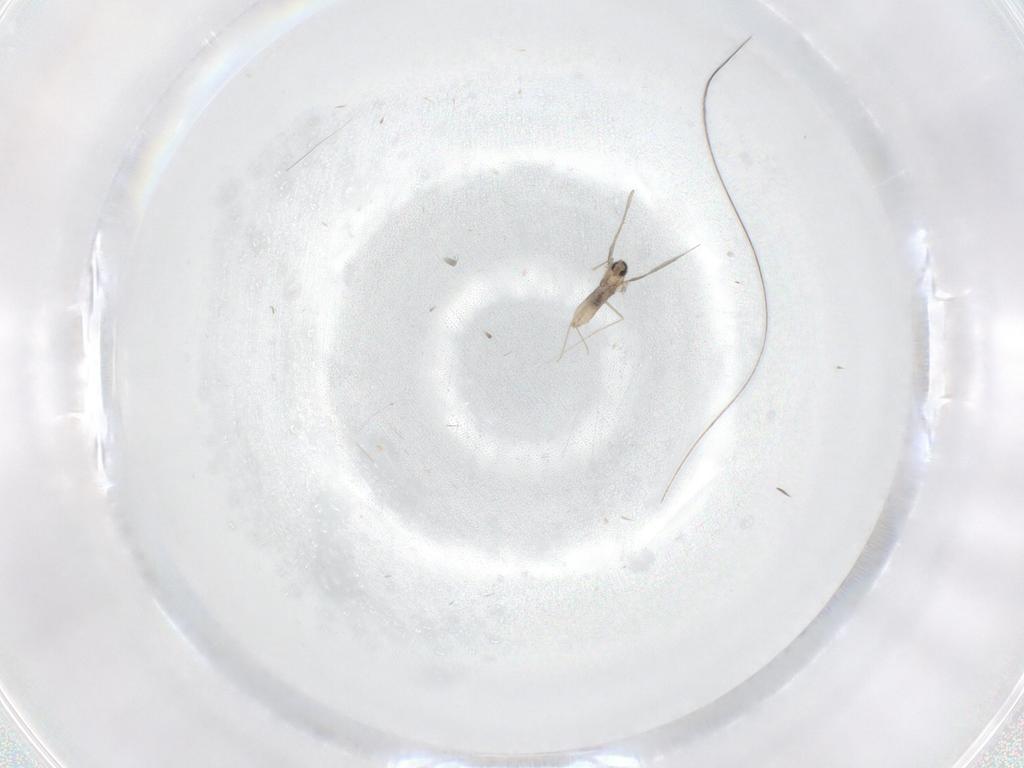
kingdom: Animalia
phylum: Arthropoda
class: Insecta
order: Diptera
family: Cecidomyiidae
